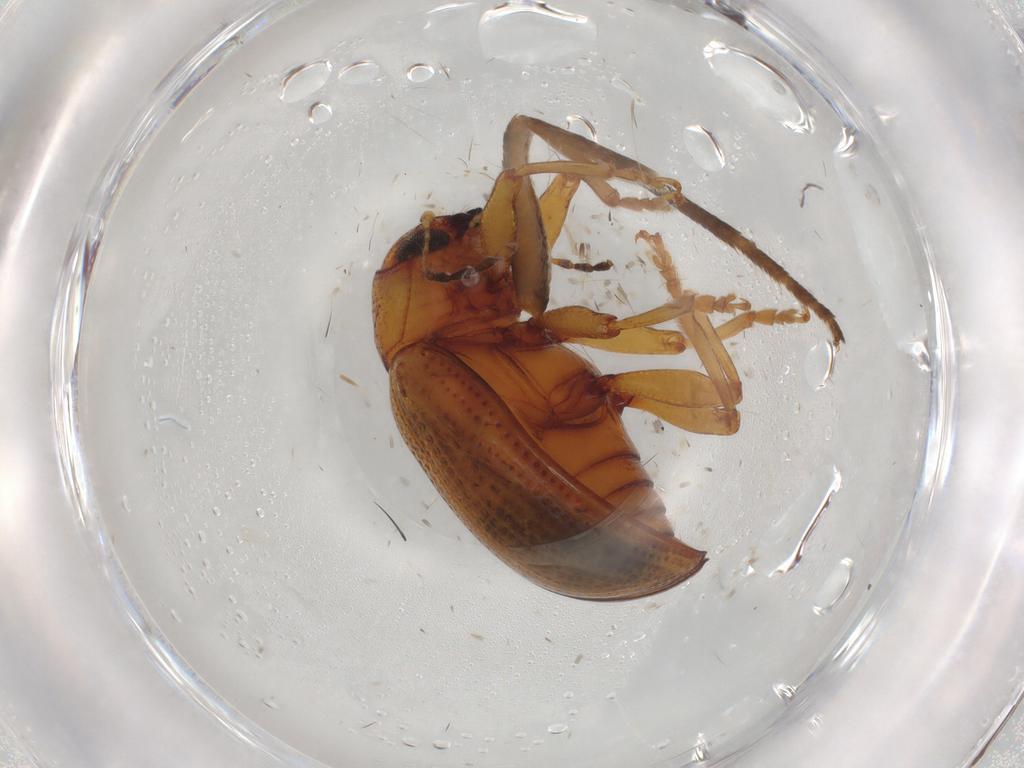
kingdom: Animalia
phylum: Arthropoda
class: Insecta
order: Coleoptera
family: Chrysomelidae
